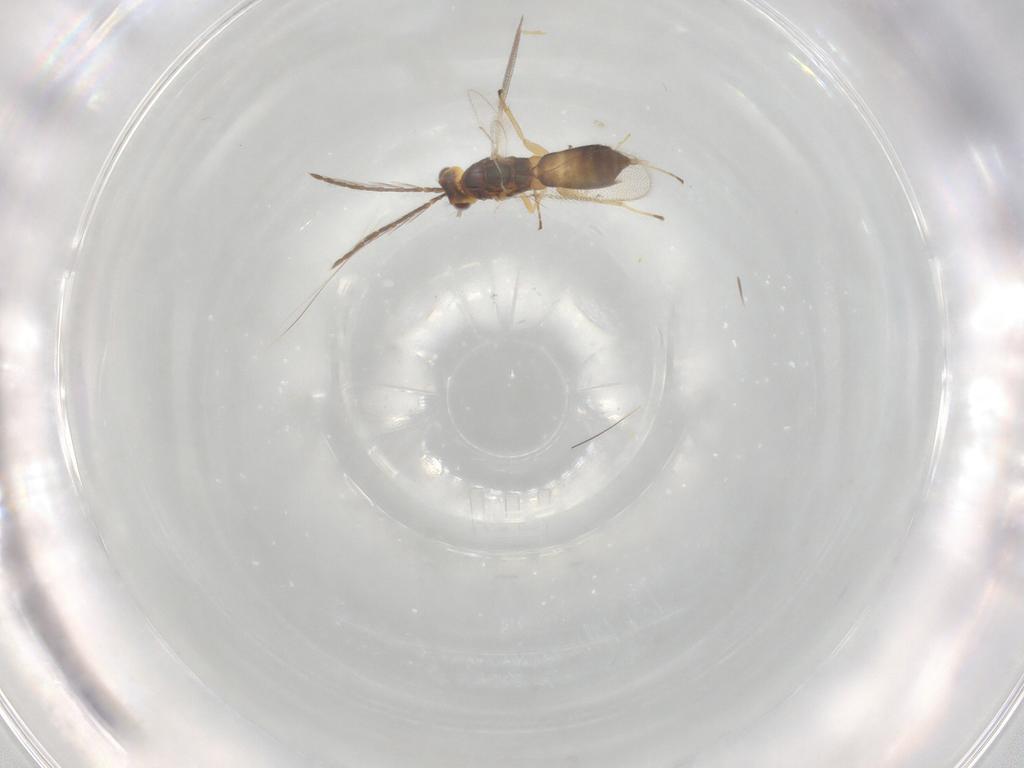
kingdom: Animalia
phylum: Arthropoda
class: Insecta
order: Hymenoptera
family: Eulophidae
